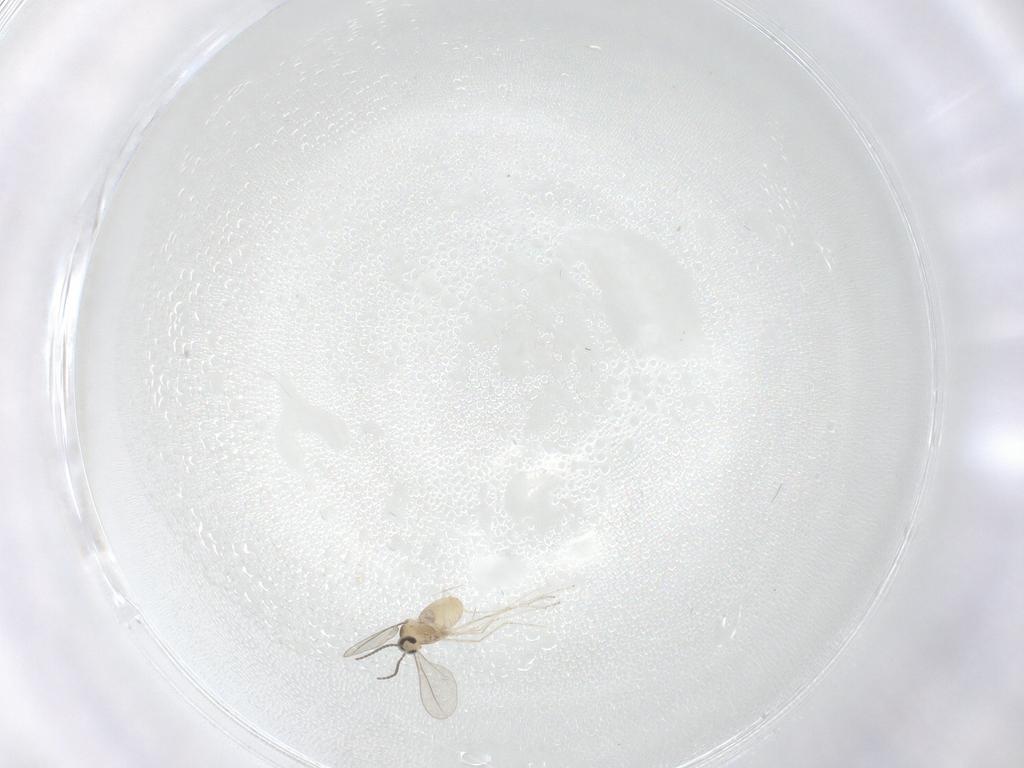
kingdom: Animalia
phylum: Arthropoda
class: Insecta
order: Diptera
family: Cecidomyiidae
